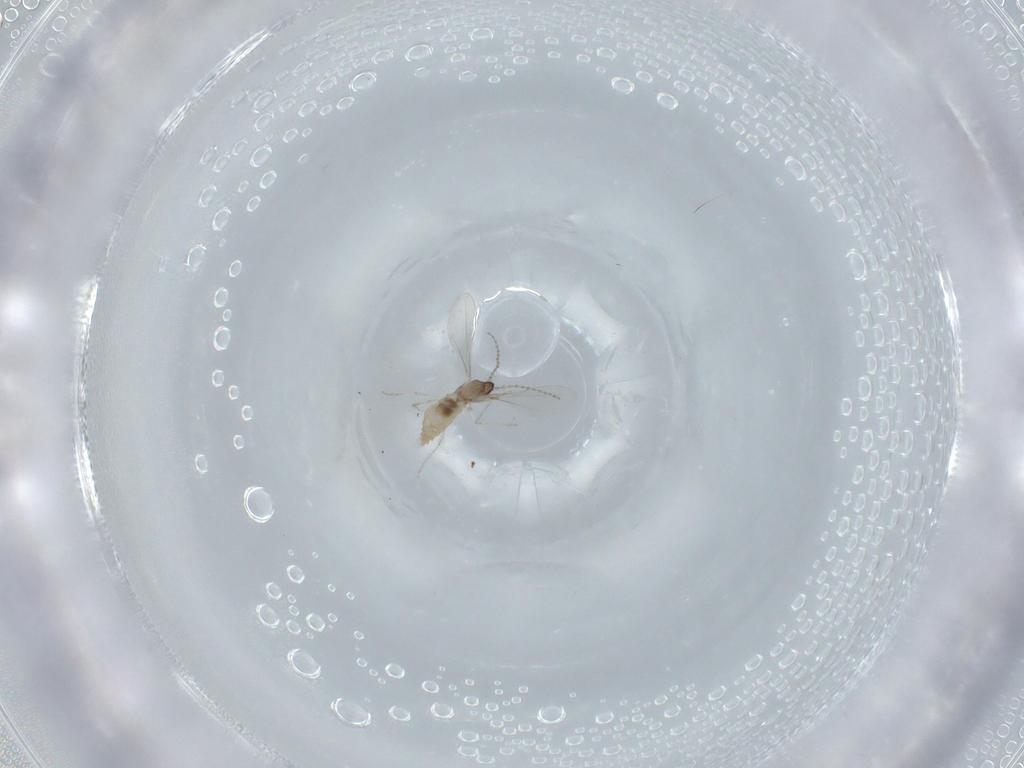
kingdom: Animalia
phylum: Arthropoda
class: Insecta
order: Diptera
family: Cecidomyiidae
